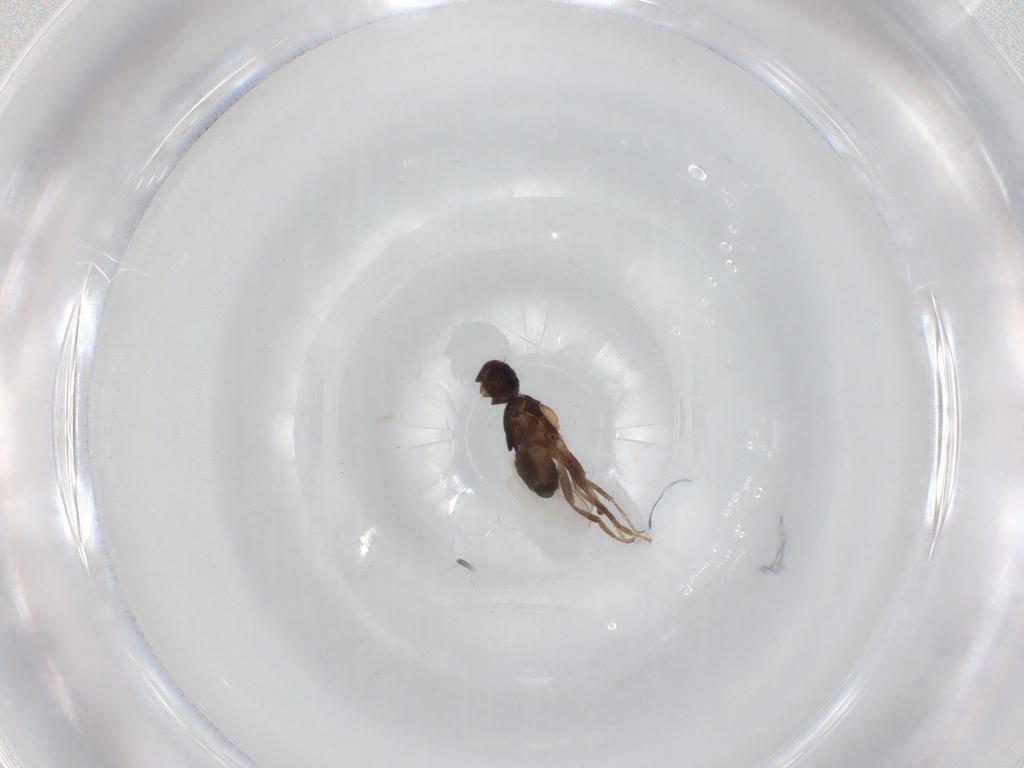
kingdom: Animalia
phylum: Arthropoda
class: Insecta
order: Diptera
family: Sphaeroceridae
